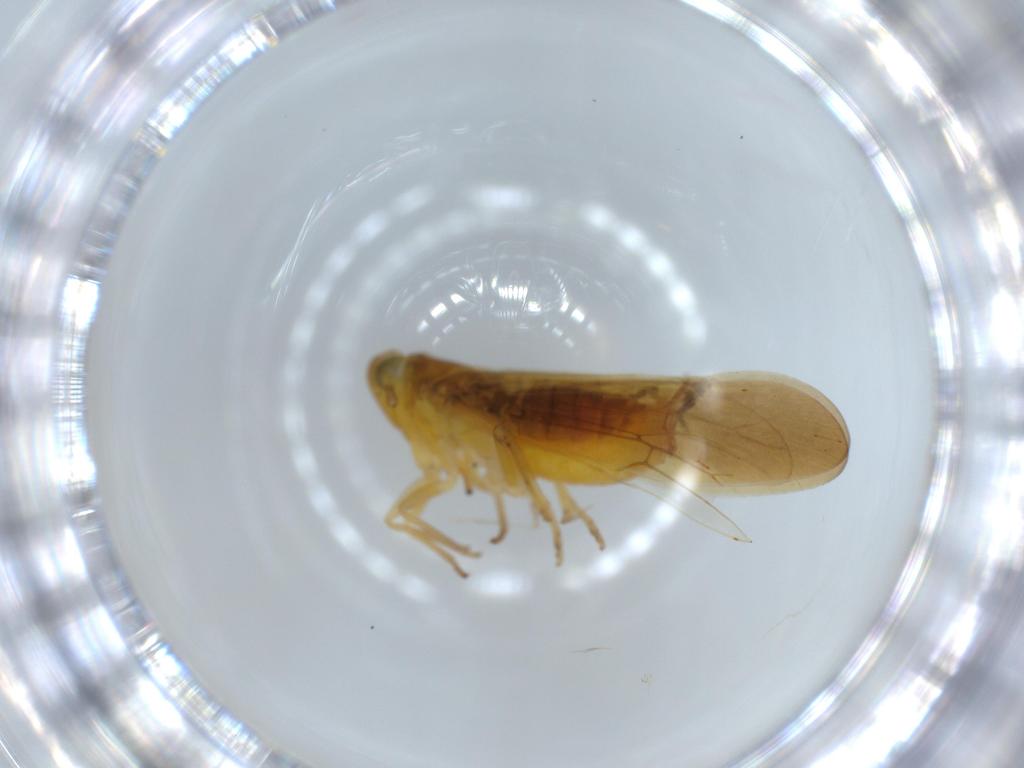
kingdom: Animalia
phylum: Arthropoda
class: Insecta
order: Hemiptera
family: Delphacidae
